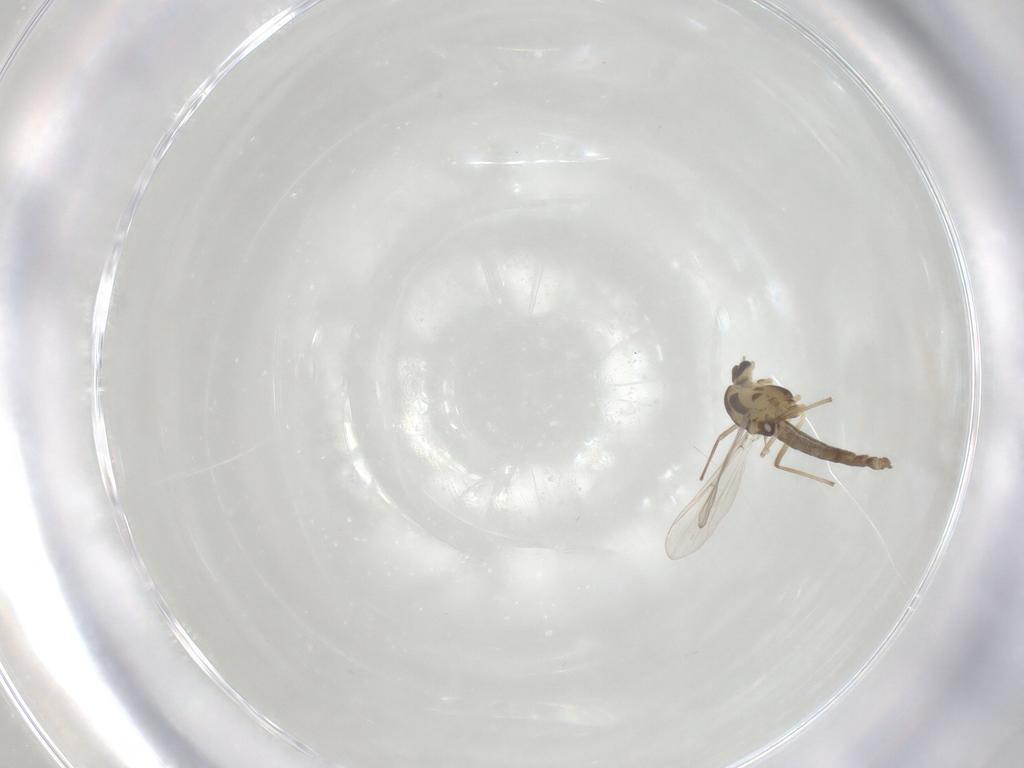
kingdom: Animalia
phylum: Arthropoda
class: Insecta
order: Diptera
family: Chironomidae
